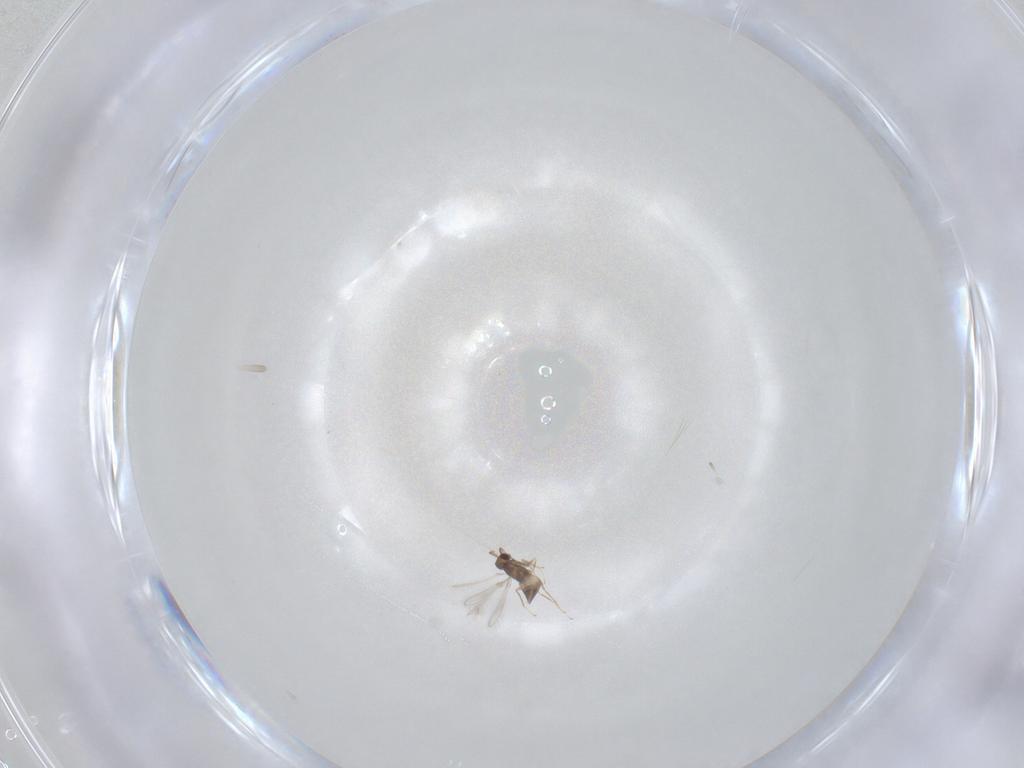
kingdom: Animalia
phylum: Arthropoda
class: Insecta
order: Hymenoptera
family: Mymaridae
